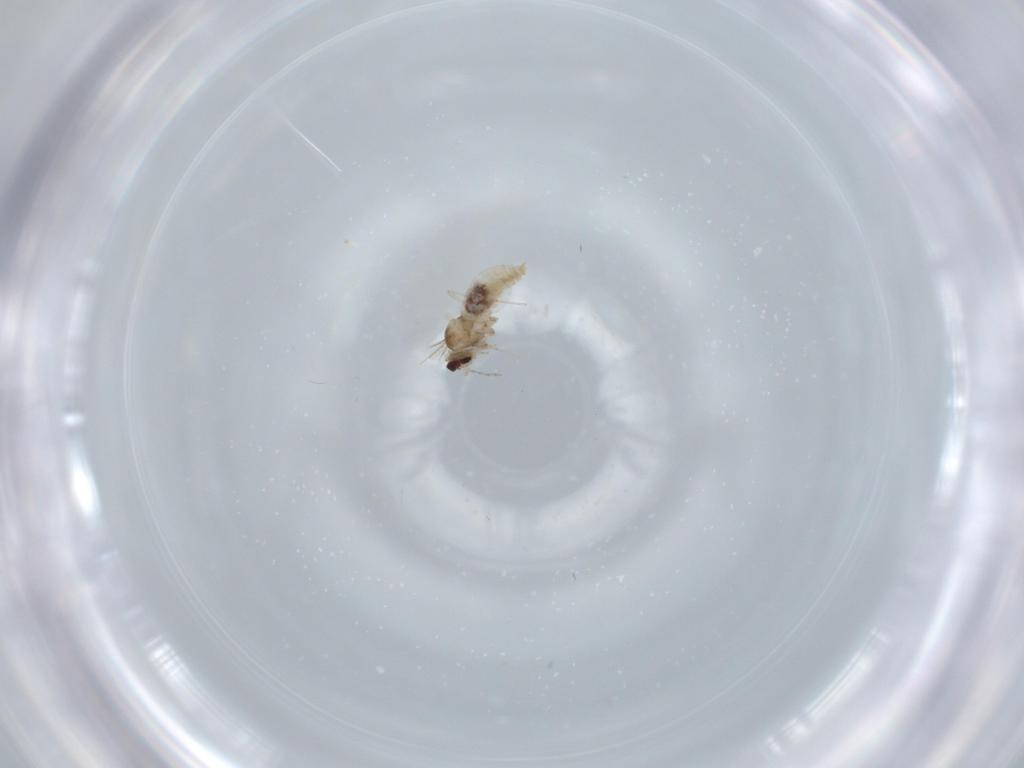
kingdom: Animalia
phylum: Arthropoda
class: Insecta
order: Diptera
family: Cecidomyiidae
